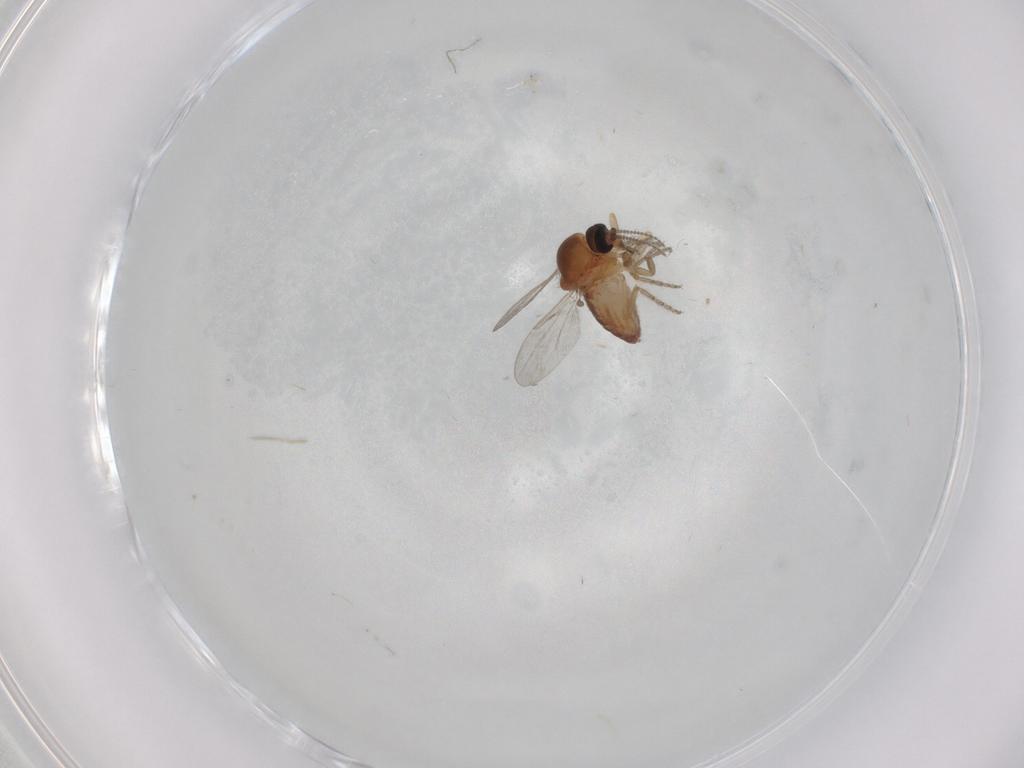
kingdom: Animalia
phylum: Arthropoda
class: Insecta
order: Diptera
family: Ceratopogonidae
